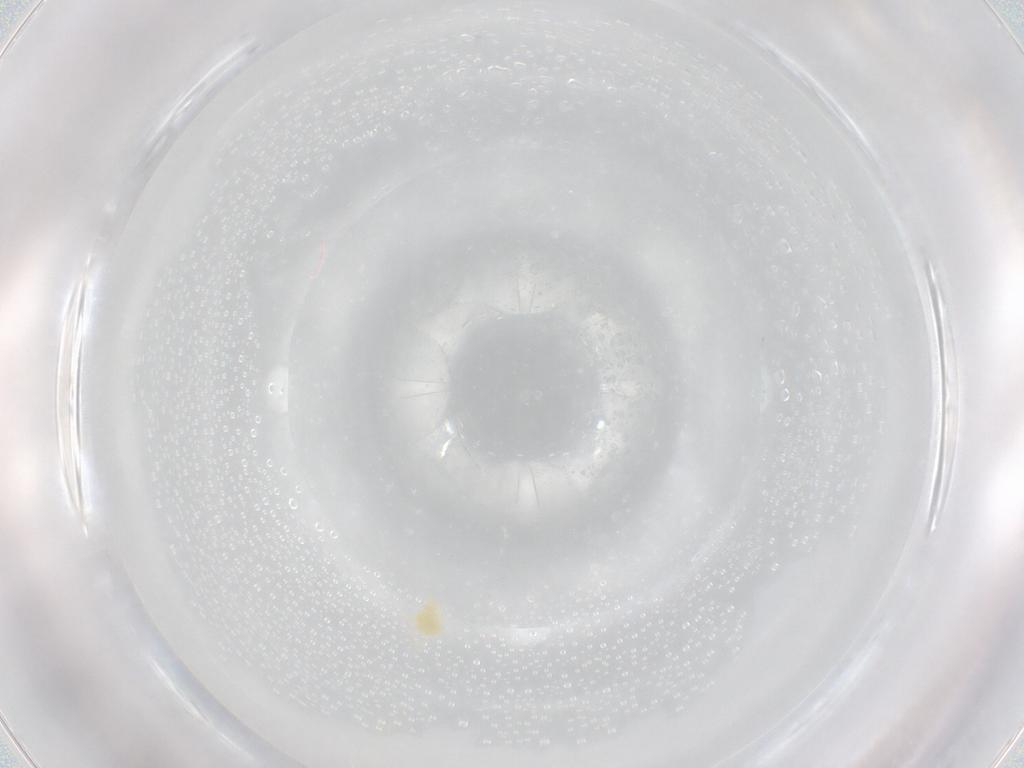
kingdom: Animalia
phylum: Arthropoda
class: Arachnida
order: Trombidiformes
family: Eupodidae
